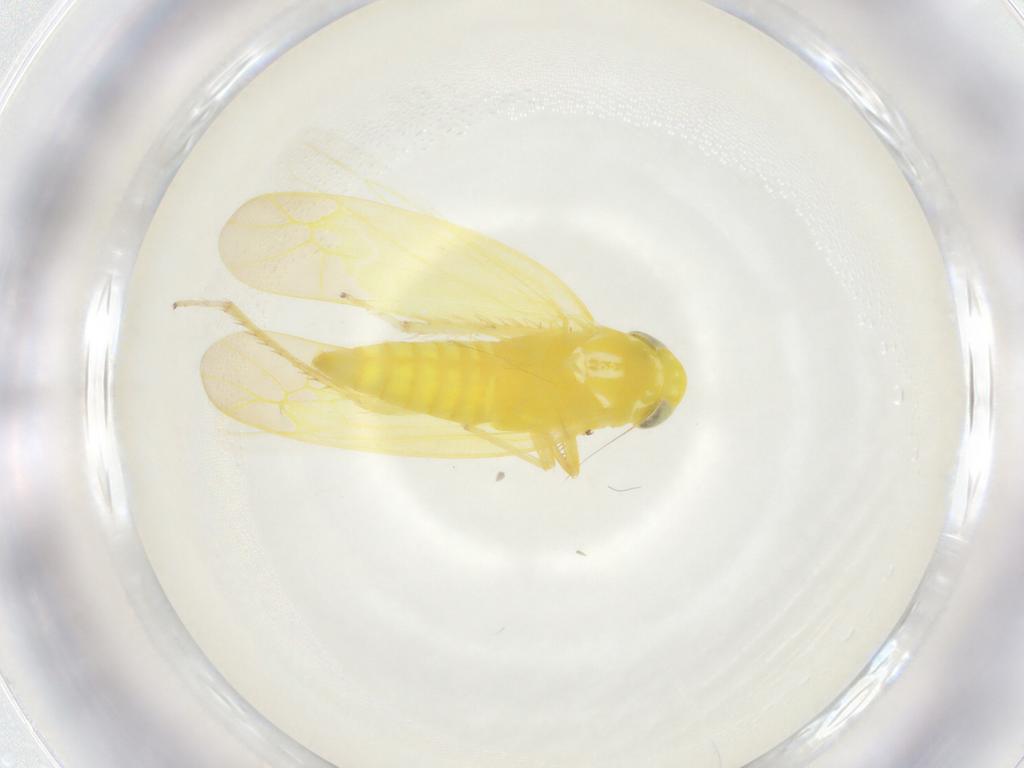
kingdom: Animalia
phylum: Arthropoda
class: Insecta
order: Hemiptera
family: Cicadellidae
